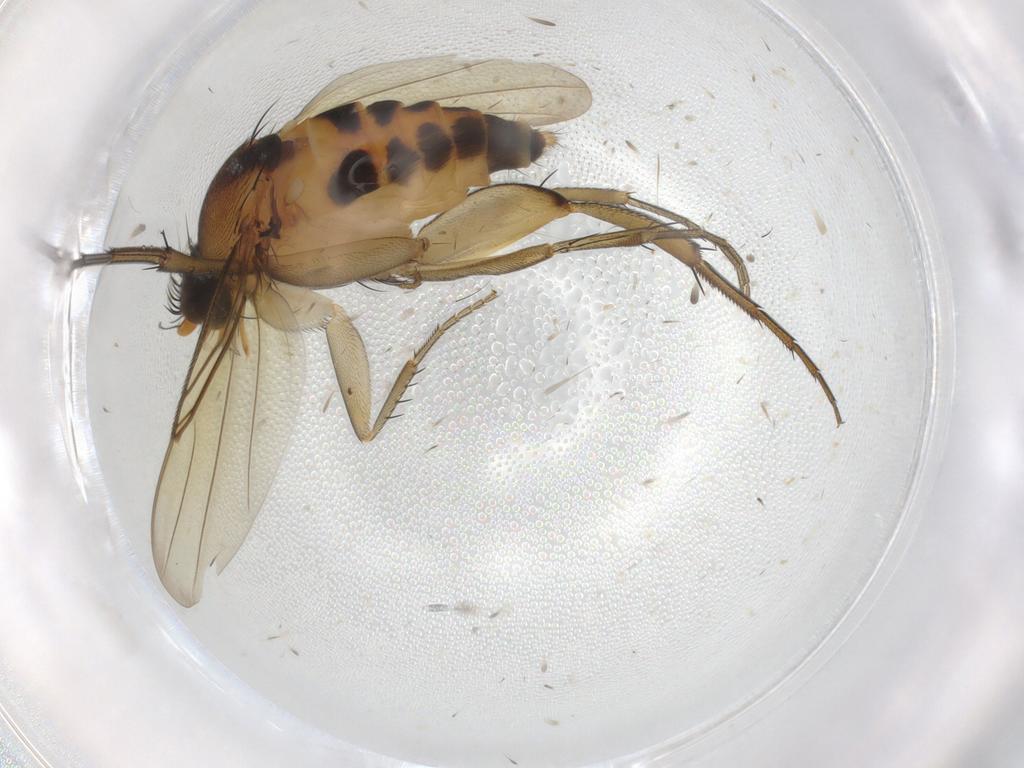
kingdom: Animalia
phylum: Arthropoda
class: Insecta
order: Diptera
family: Phoridae
